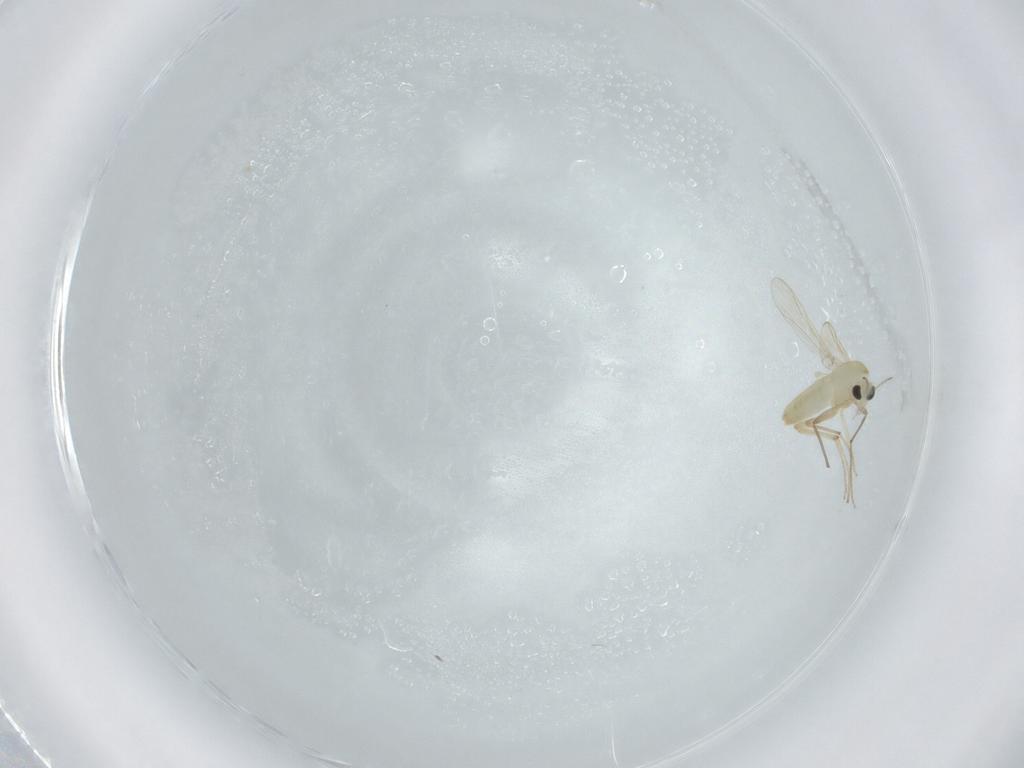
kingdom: Animalia
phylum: Arthropoda
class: Insecta
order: Diptera
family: Chironomidae
